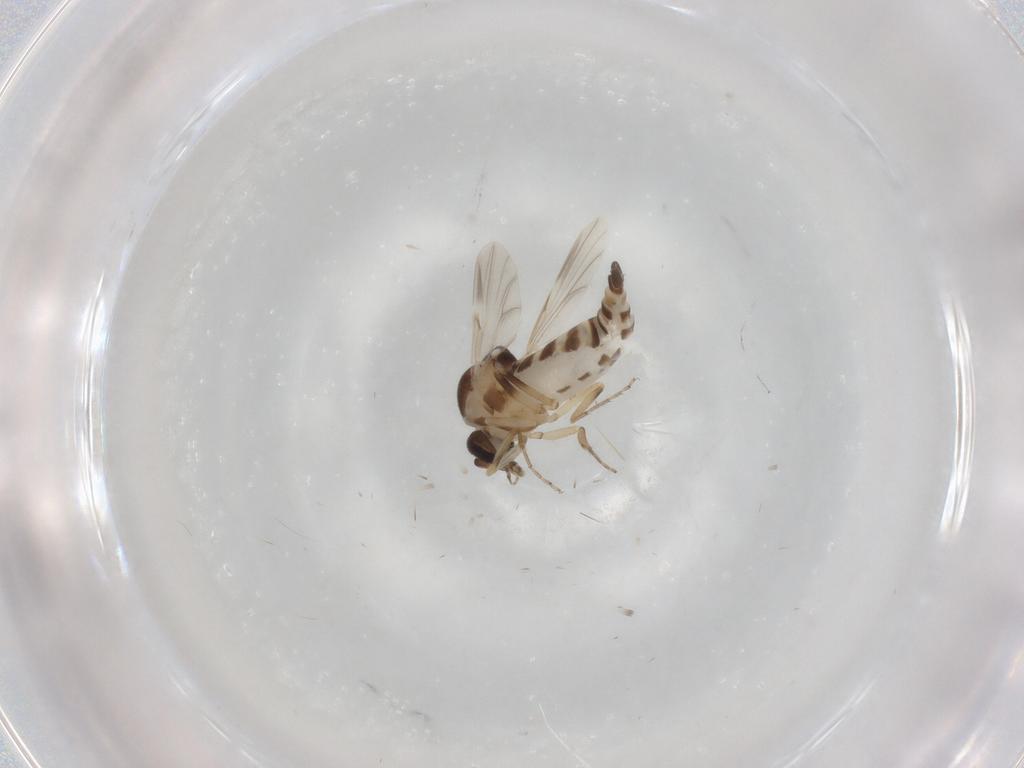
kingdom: Animalia
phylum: Arthropoda
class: Insecta
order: Diptera
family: Ceratopogonidae
